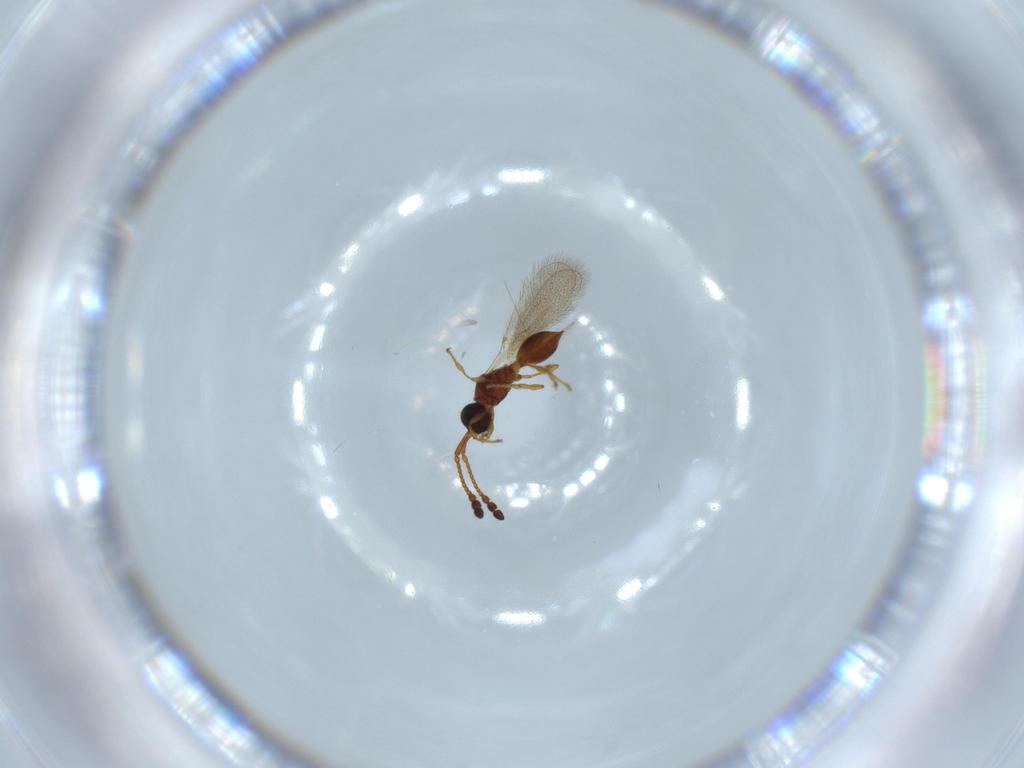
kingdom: Animalia
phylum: Arthropoda
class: Insecta
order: Hymenoptera
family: Diapriidae
